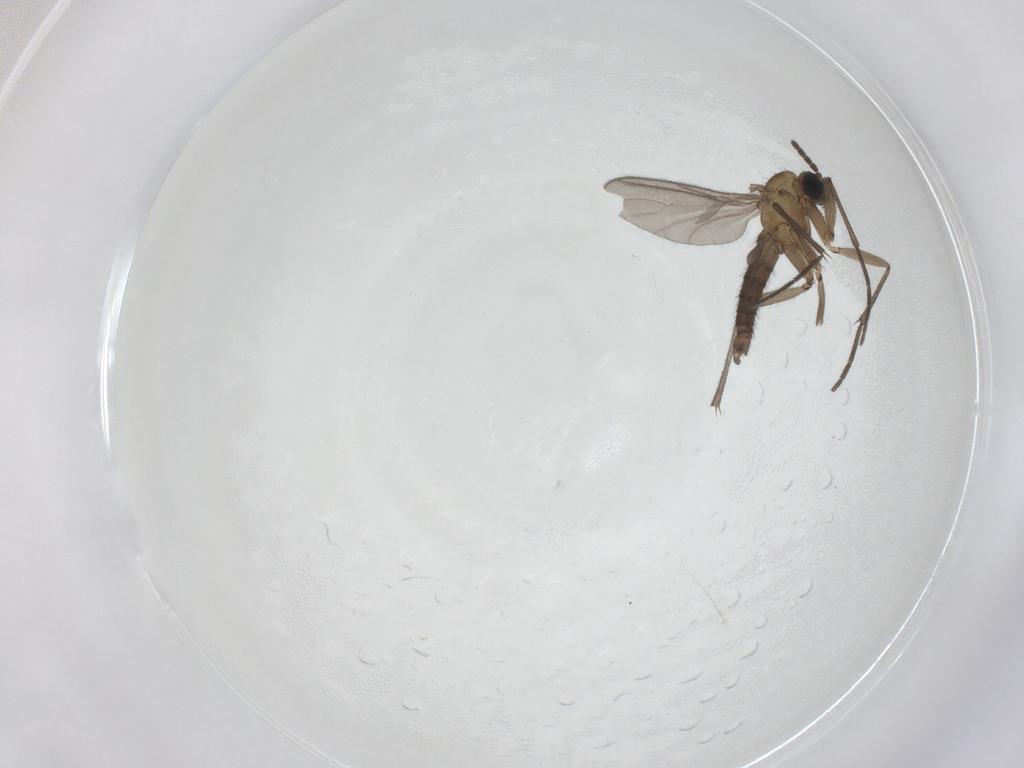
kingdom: Animalia
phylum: Arthropoda
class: Insecta
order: Diptera
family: Sciaridae
